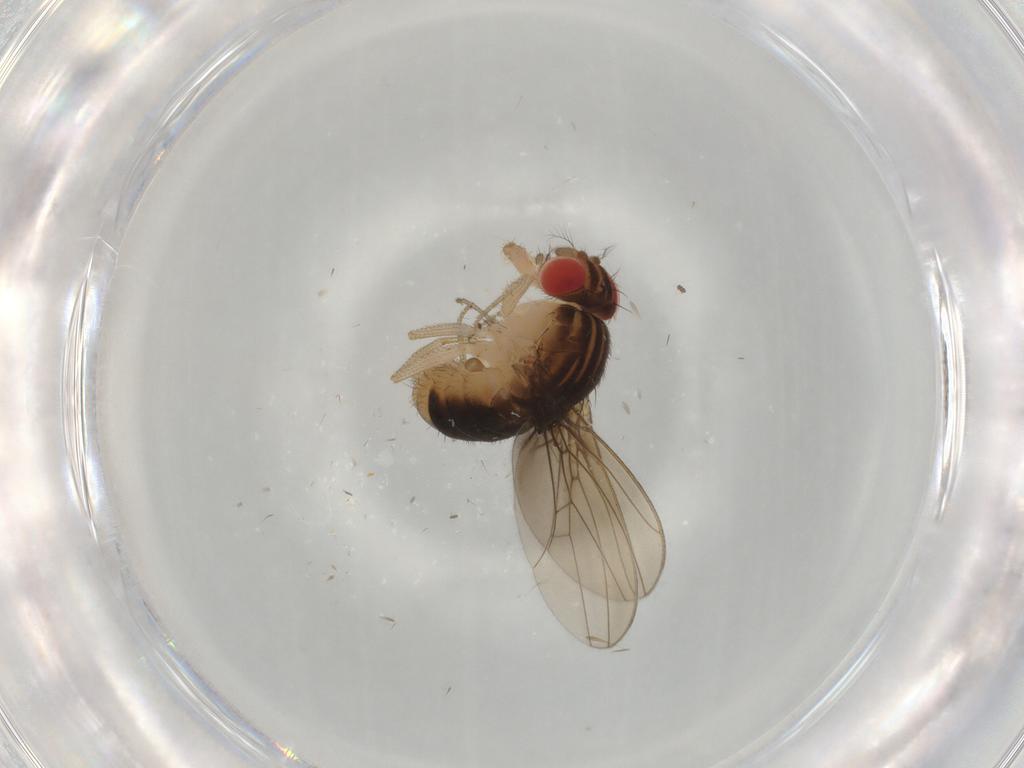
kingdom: Animalia
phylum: Arthropoda
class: Insecta
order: Diptera
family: Drosophilidae
